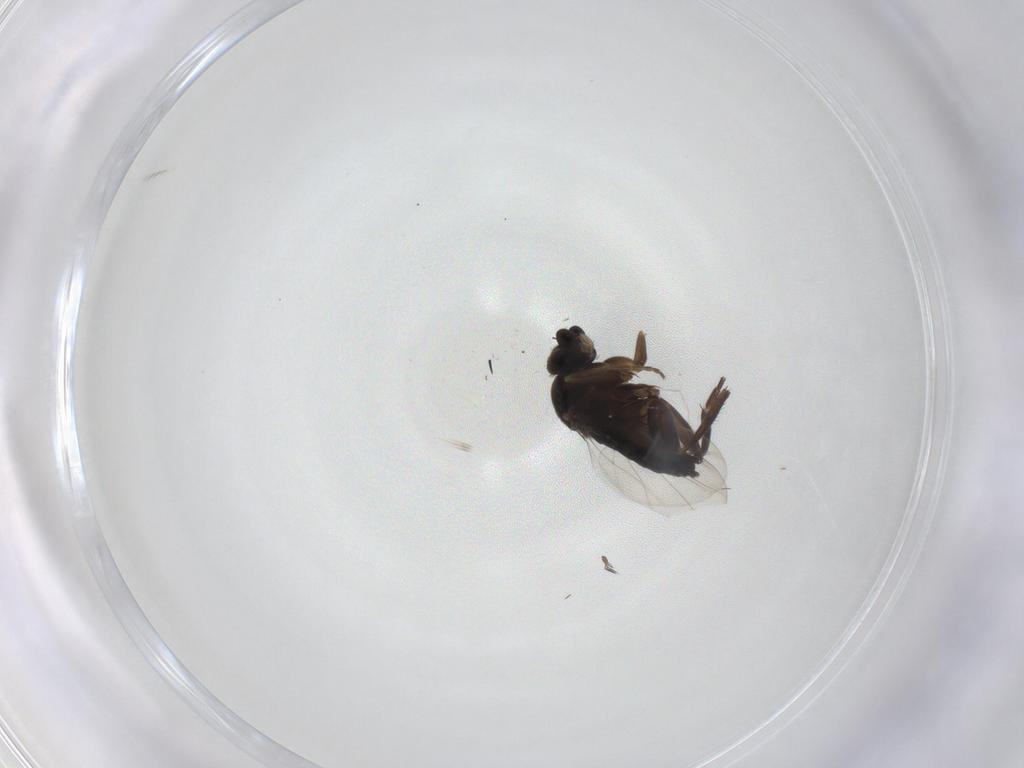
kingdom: Animalia
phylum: Arthropoda
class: Insecta
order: Diptera
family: Phoridae
